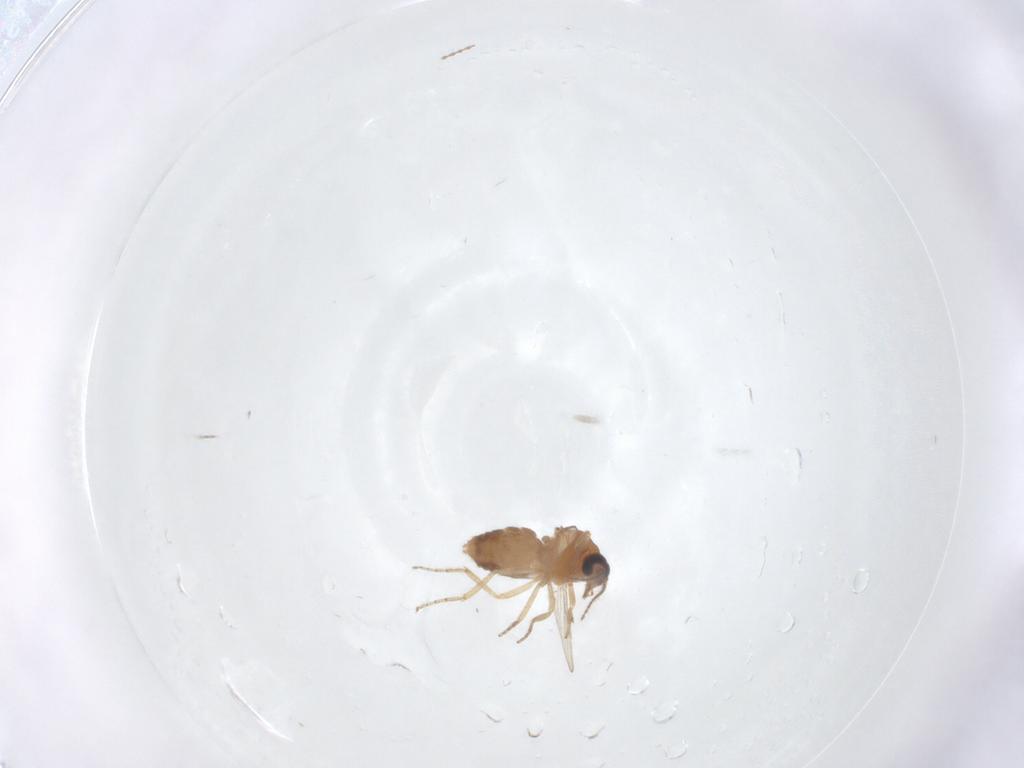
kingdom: Animalia
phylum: Arthropoda
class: Insecta
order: Diptera
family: Ceratopogonidae
